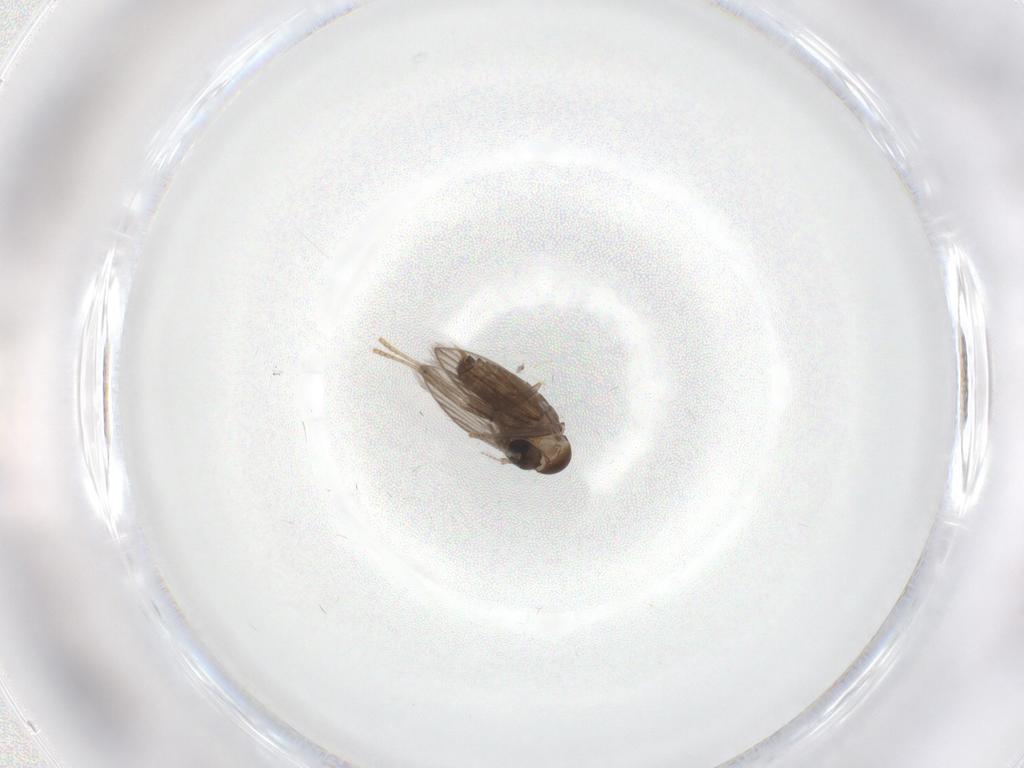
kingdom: Animalia
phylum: Arthropoda
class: Insecta
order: Diptera
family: Psychodidae
